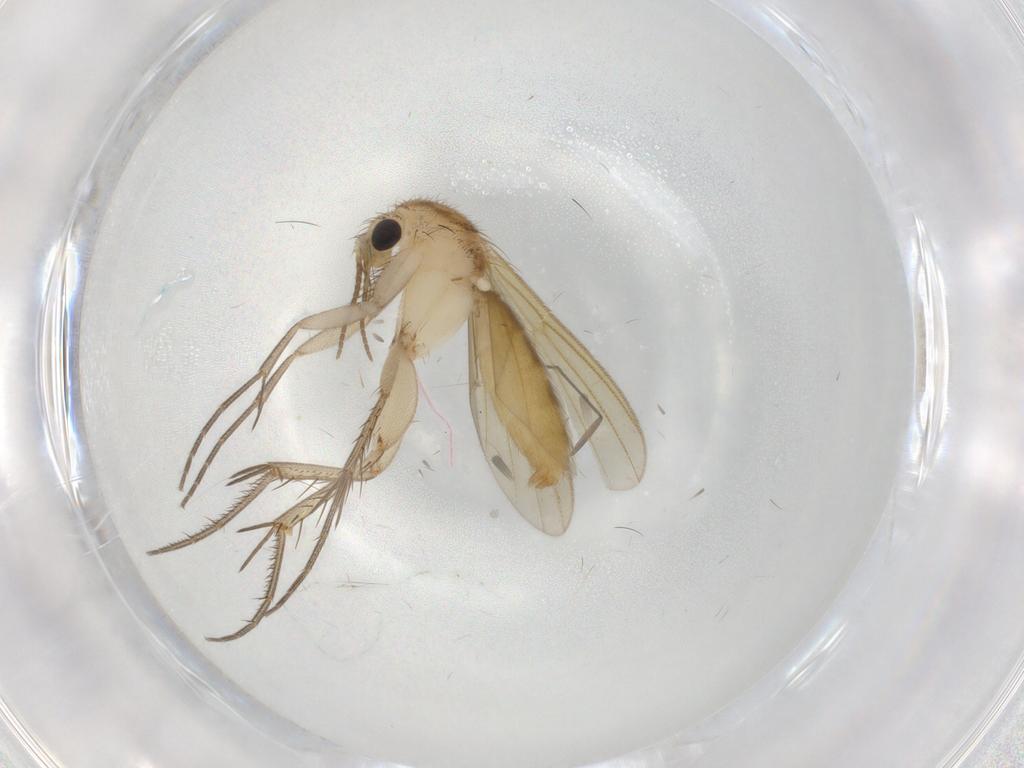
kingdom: Animalia
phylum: Arthropoda
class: Insecta
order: Diptera
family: Mycetophilidae
